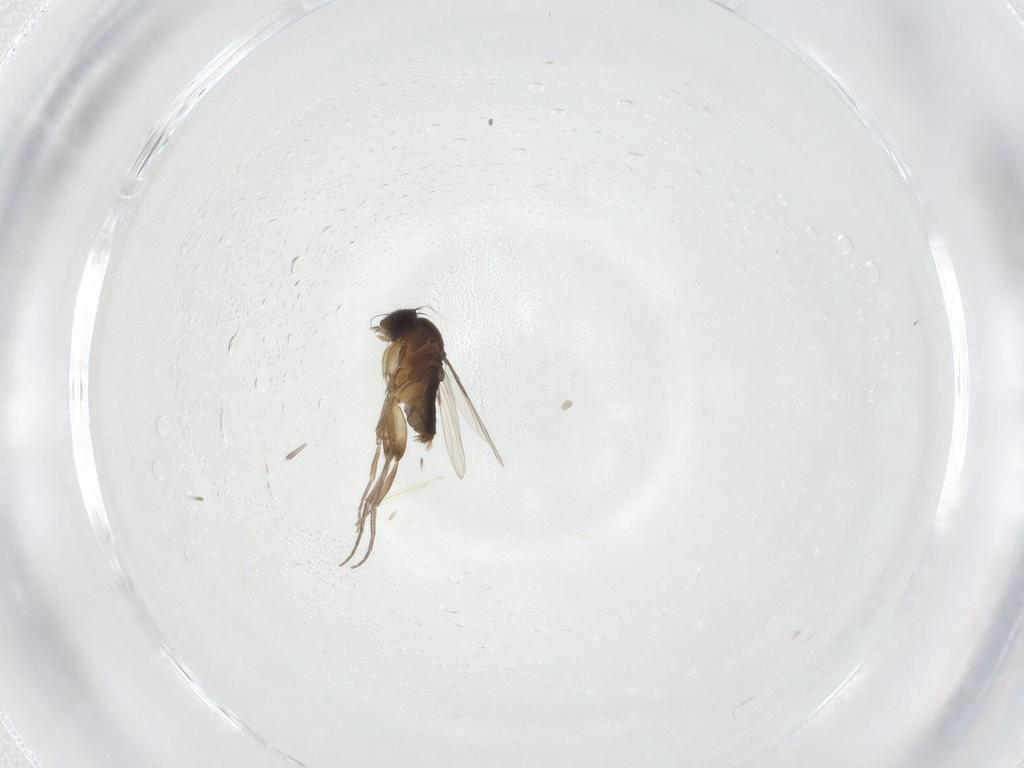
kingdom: Animalia
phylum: Arthropoda
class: Insecta
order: Diptera
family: Phoridae
